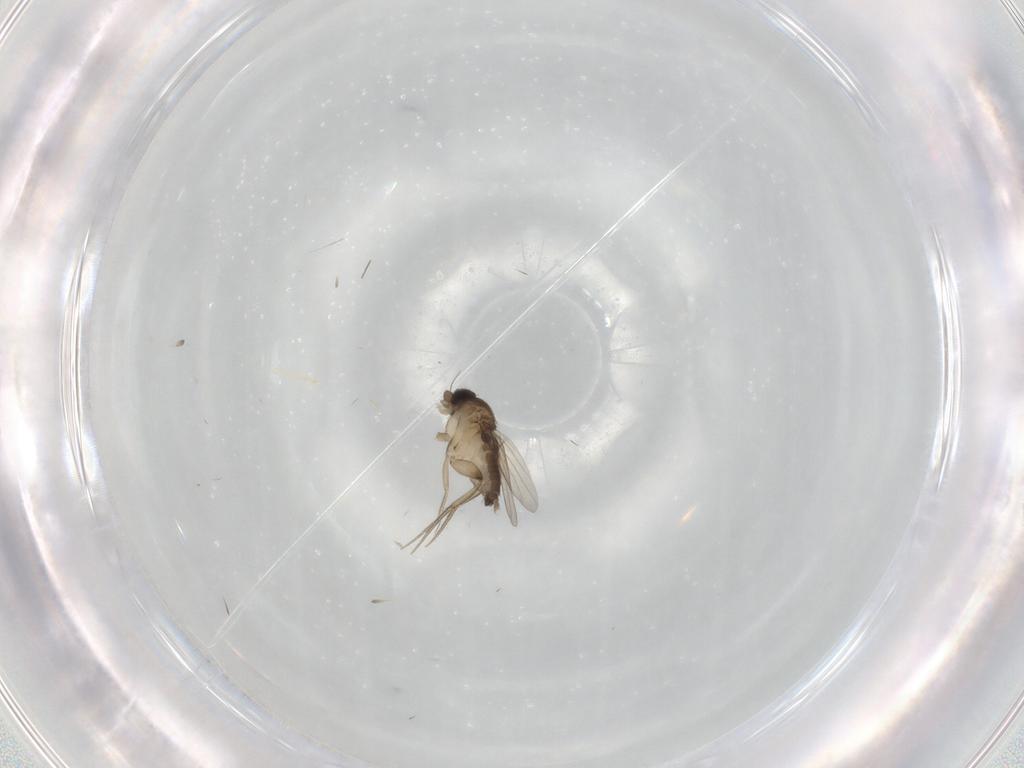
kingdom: Animalia
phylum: Arthropoda
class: Insecta
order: Diptera
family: Phoridae
